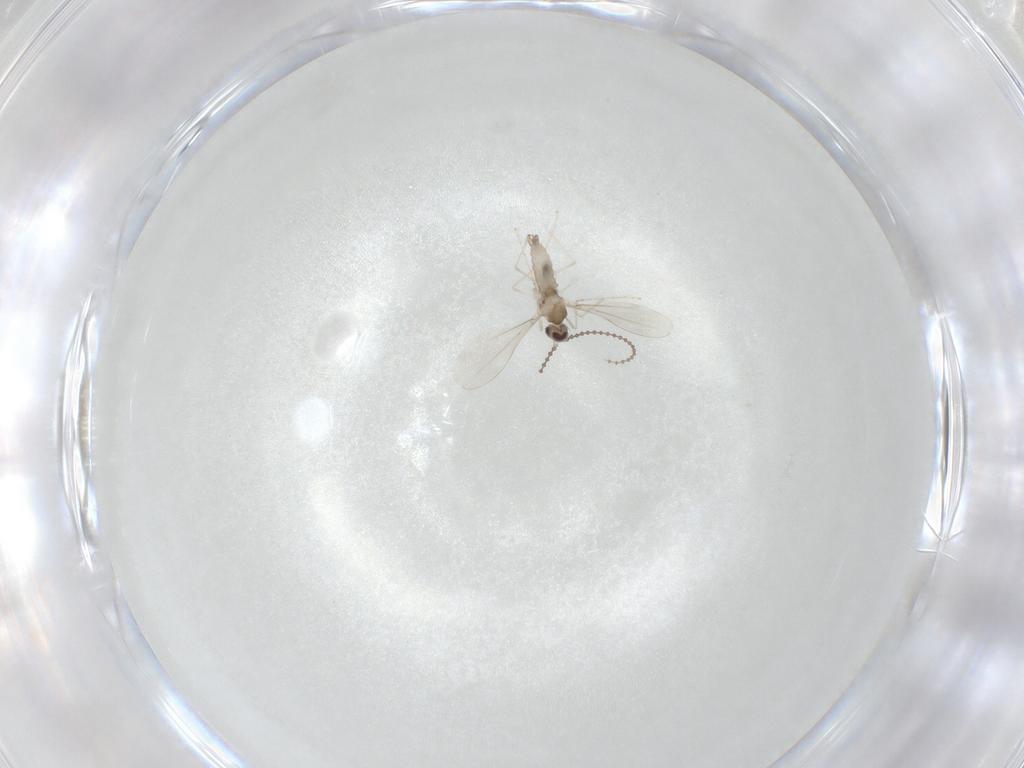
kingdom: Animalia
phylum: Arthropoda
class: Insecta
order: Diptera
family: Cecidomyiidae
